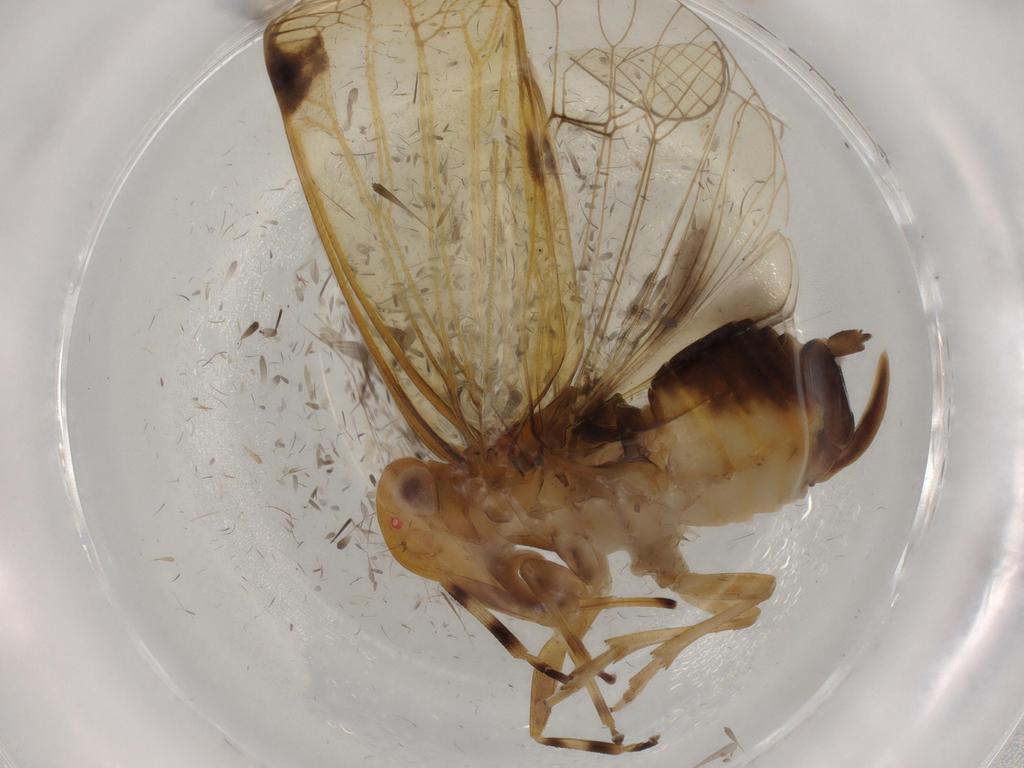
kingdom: Animalia
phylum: Arthropoda
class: Insecta
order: Hemiptera
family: Cixiidae
